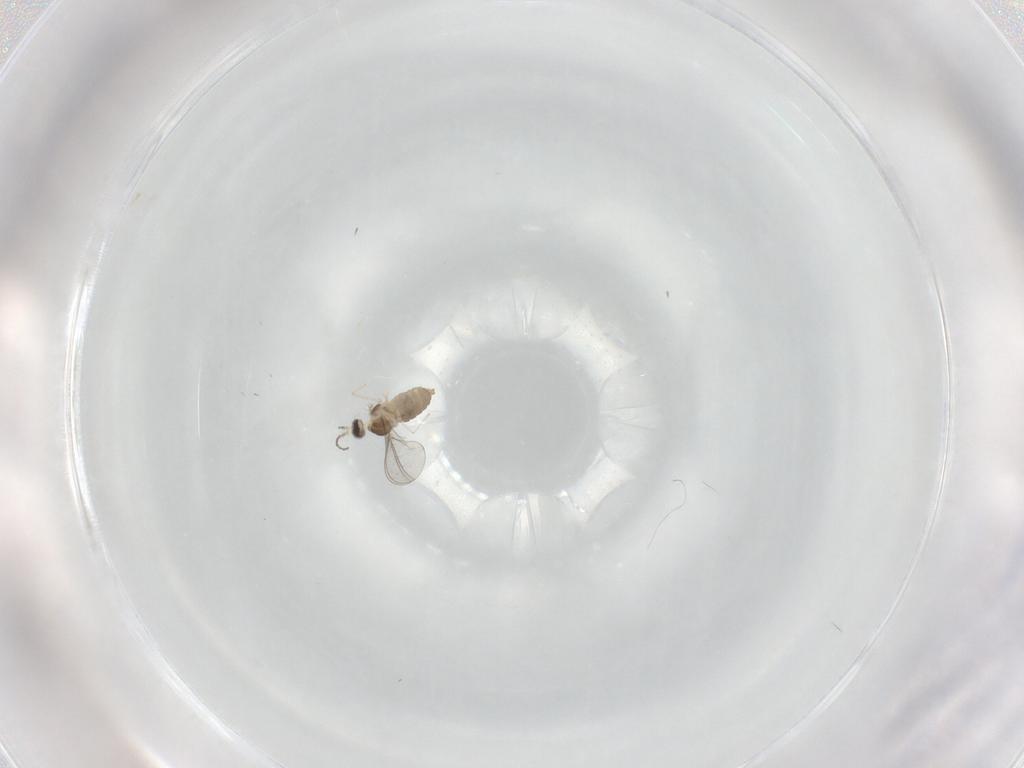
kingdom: Animalia
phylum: Arthropoda
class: Insecta
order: Diptera
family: Cecidomyiidae
